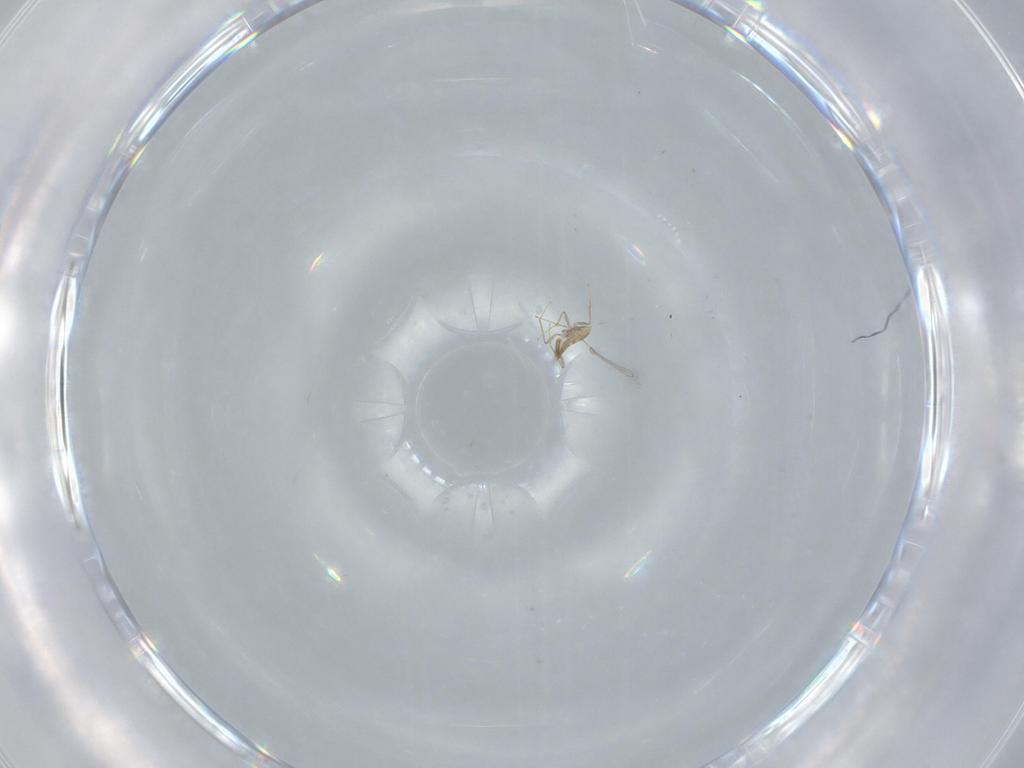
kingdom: Animalia
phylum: Arthropoda
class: Insecta
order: Hymenoptera
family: Mymaridae
